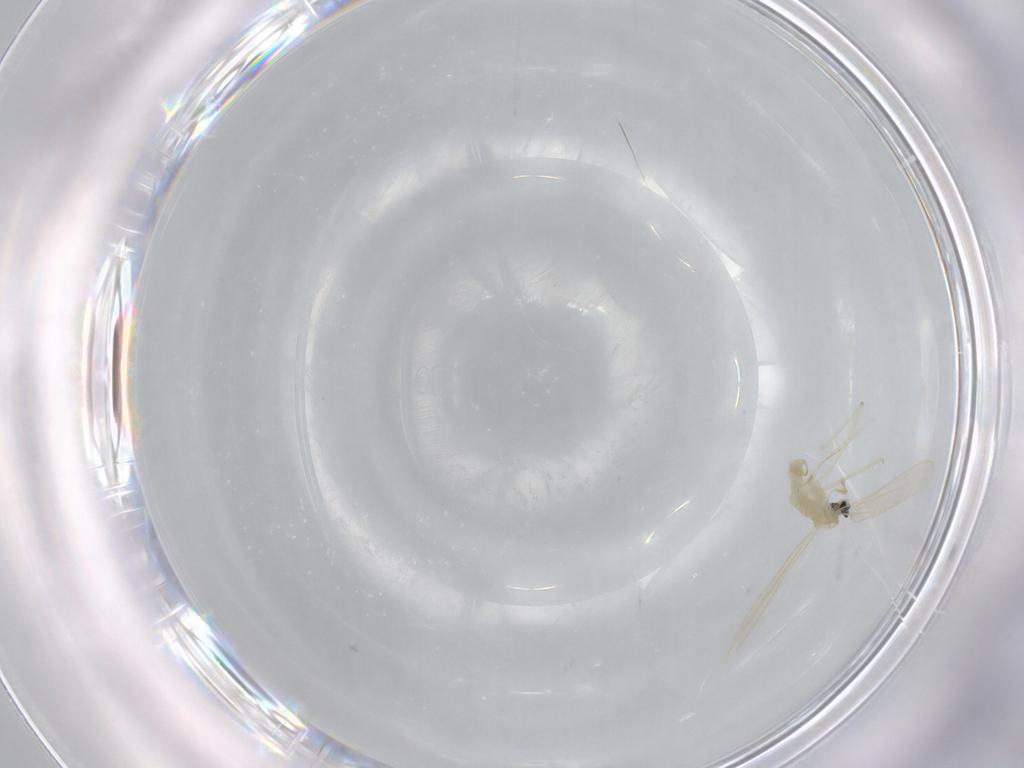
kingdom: Animalia
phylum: Arthropoda
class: Insecta
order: Diptera
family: Cecidomyiidae
